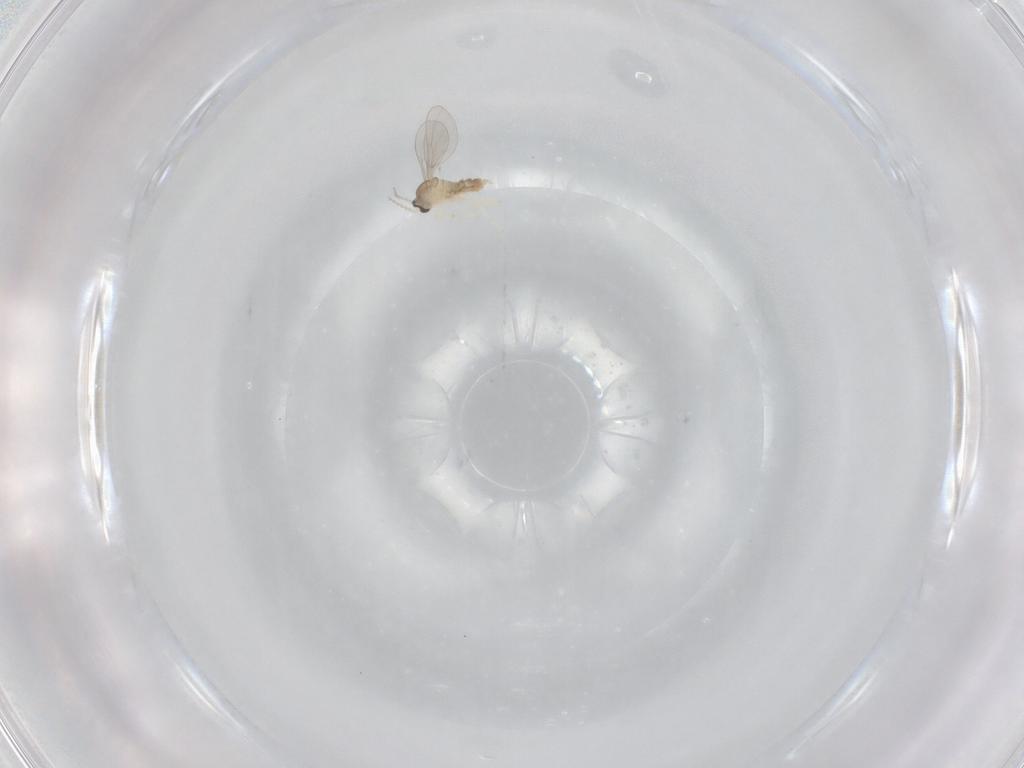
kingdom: Animalia
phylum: Arthropoda
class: Insecta
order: Diptera
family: Cecidomyiidae
